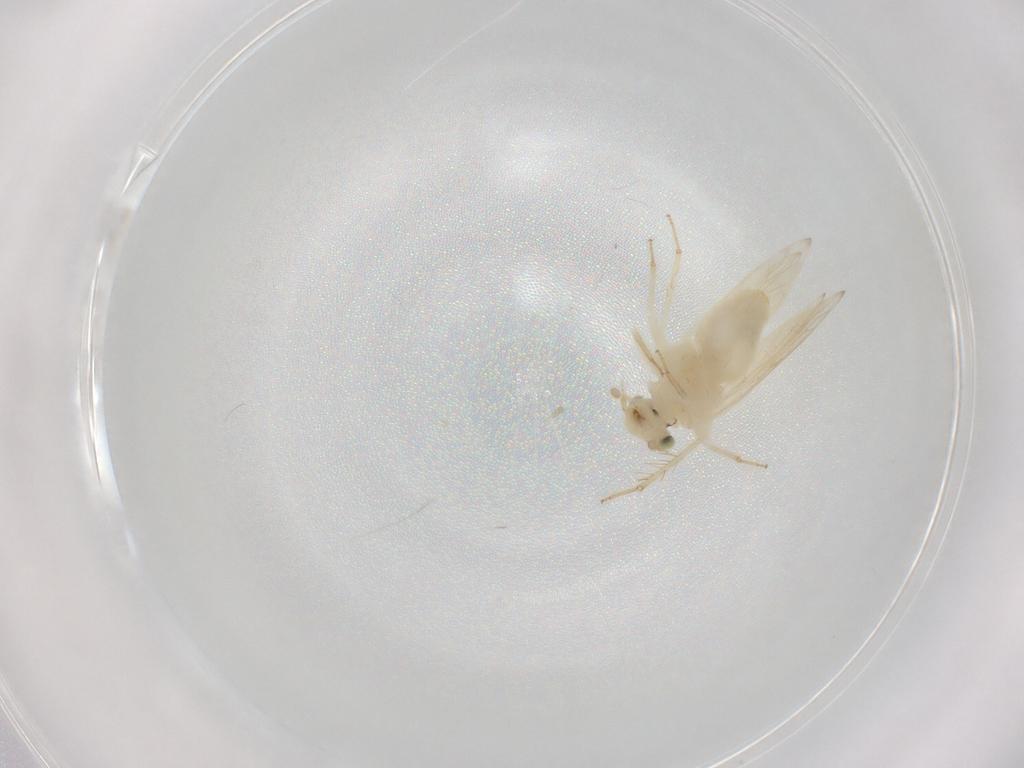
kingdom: Animalia
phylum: Arthropoda
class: Insecta
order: Psocodea
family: Lepidopsocidae
